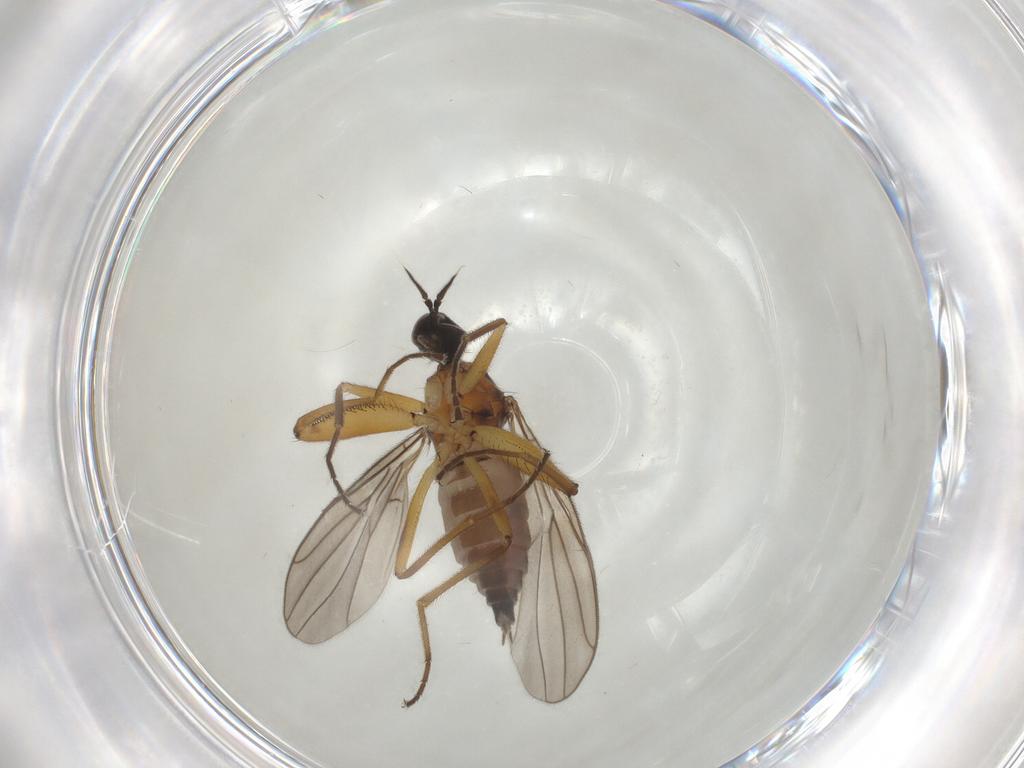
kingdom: Animalia
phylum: Arthropoda
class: Insecta
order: Diptera
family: Hybotidae
